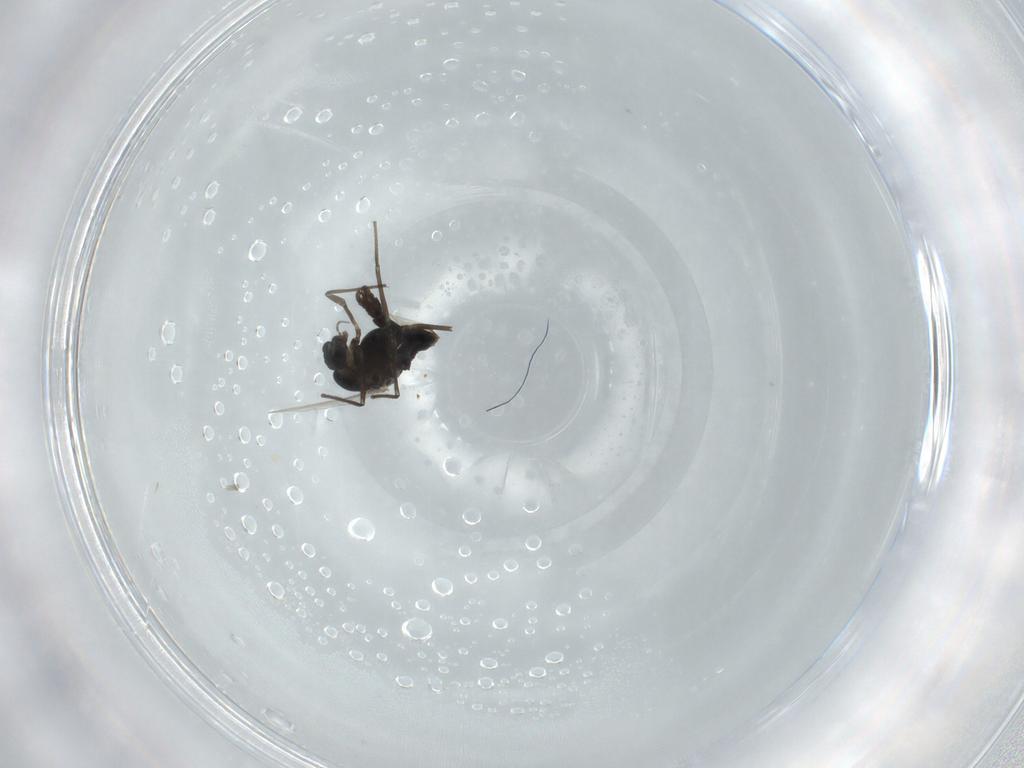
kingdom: Animalia
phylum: Arthropoda
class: Insecta
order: Diptera
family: Chironomidae
